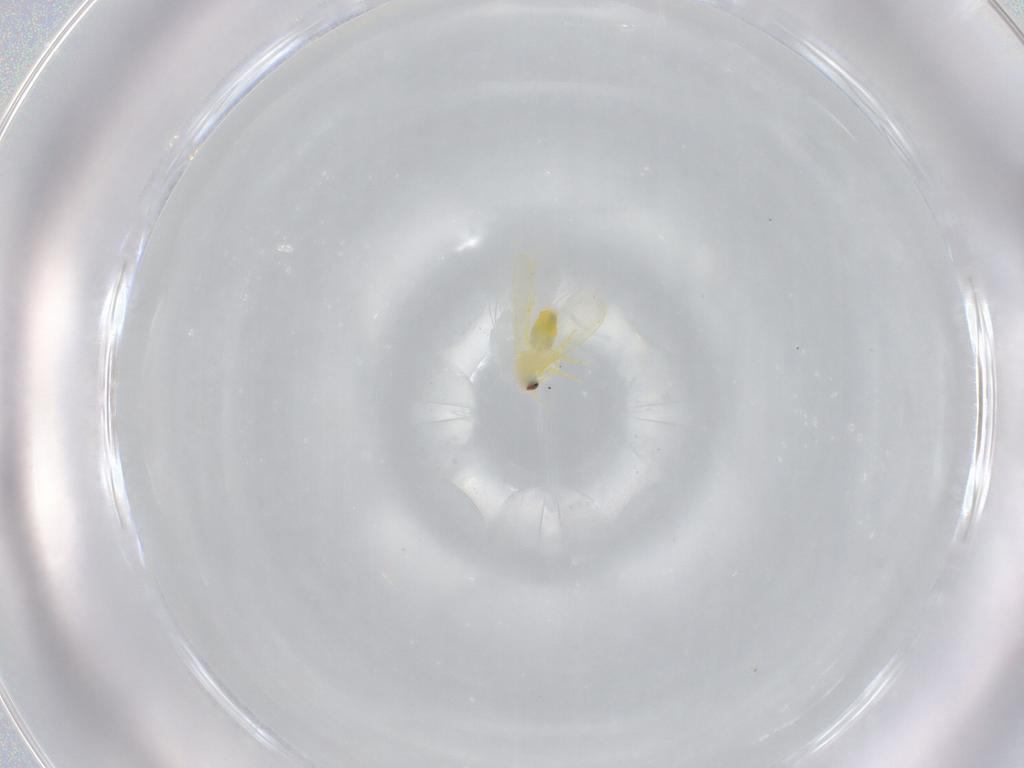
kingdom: Animalia
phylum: Arthropoda
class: Insecta
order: Hemiptera
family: Aleyrodidae
